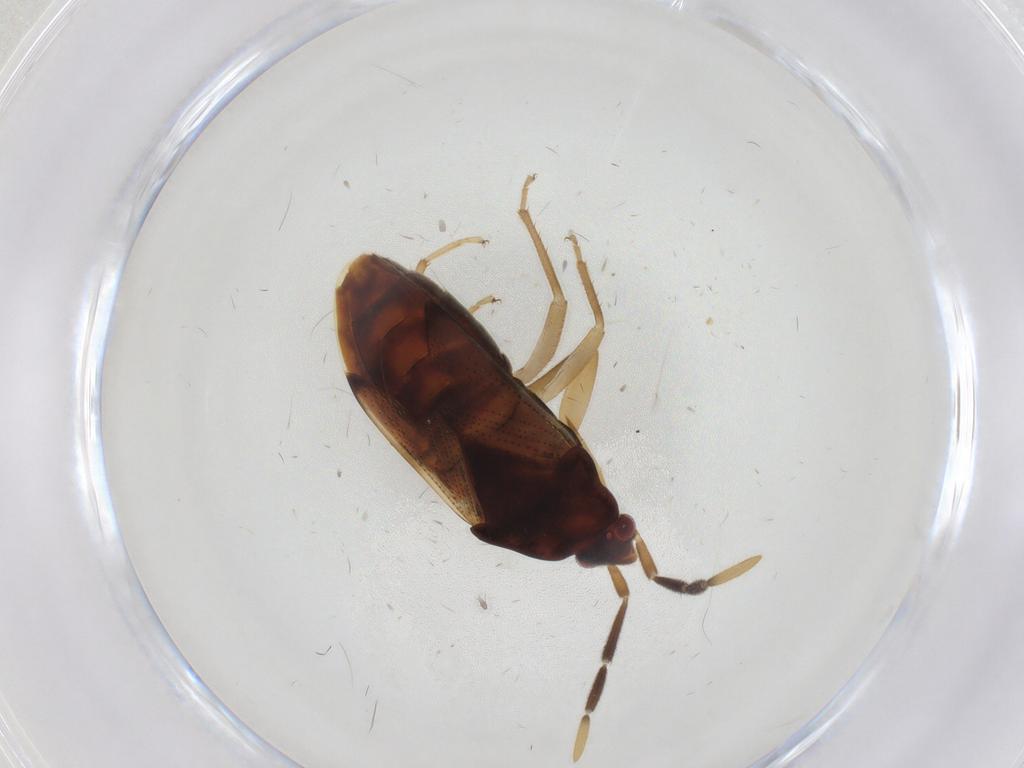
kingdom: Animalia
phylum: Arthropoda
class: Insecta
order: Hemiptera
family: Rhyparochromidae
